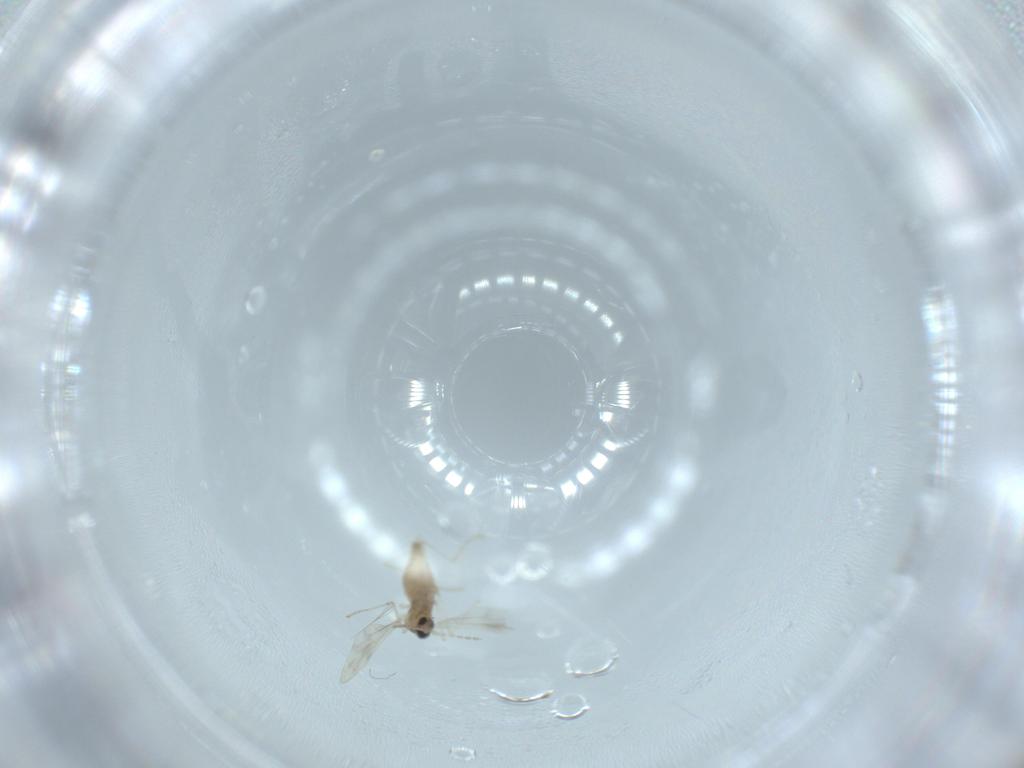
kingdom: Animalia
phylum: Arthropoda
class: Insecta
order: Diptera
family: Cecidomyiidae
